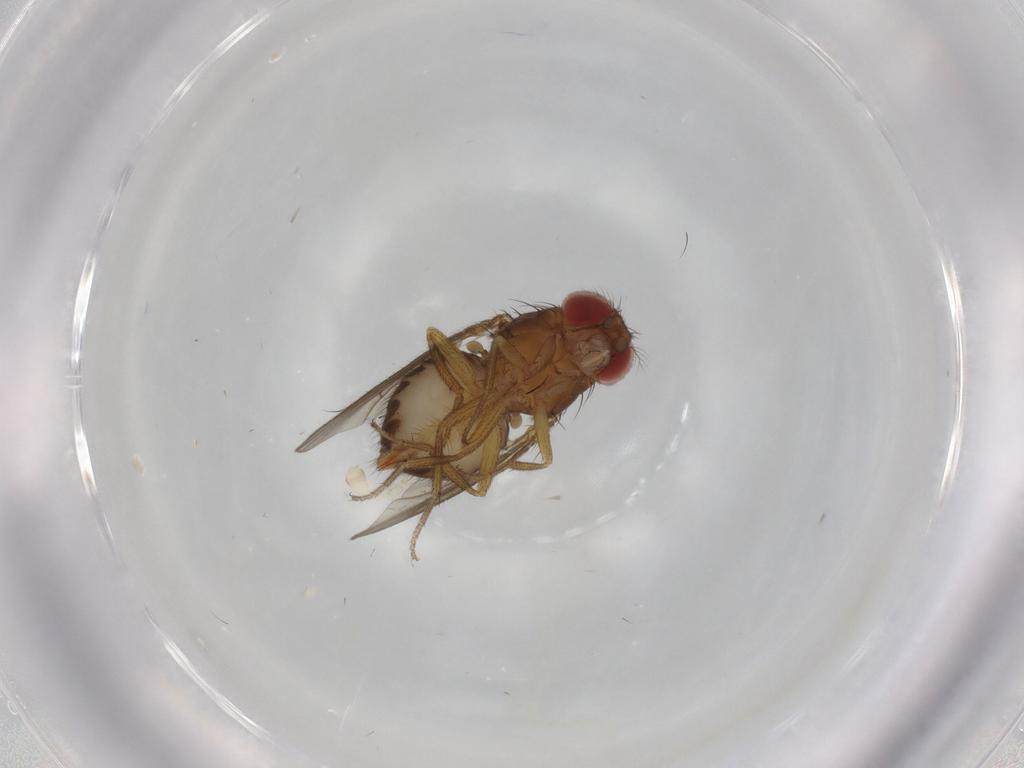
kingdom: Animalia
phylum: Arthropoda
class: Insecta
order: Diptera
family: Drosophilidae
